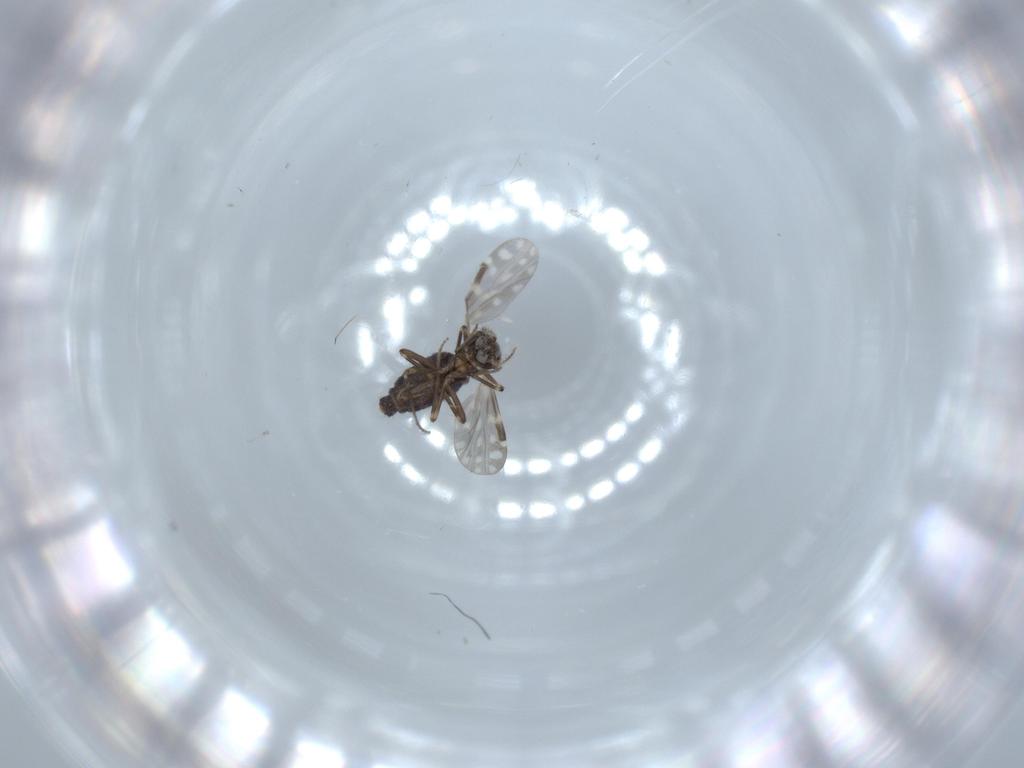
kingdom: Animalia
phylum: Arthropoda
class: Insecta
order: Diptera
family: Ceratopogonidae
